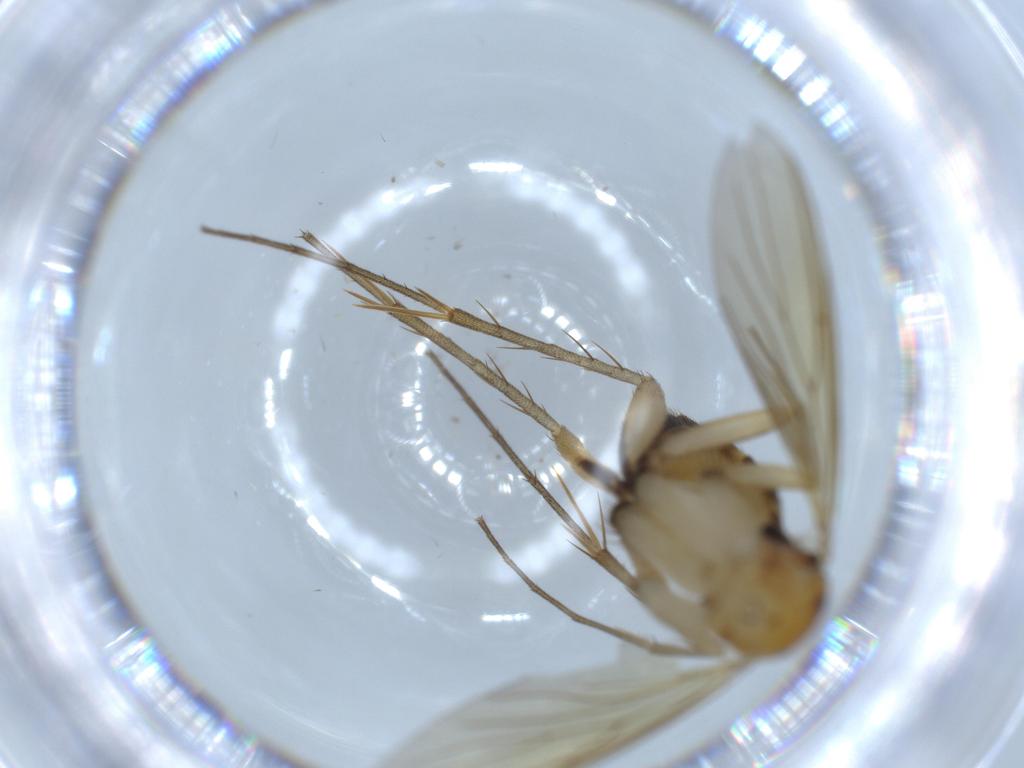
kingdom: Animalia
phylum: Arthropoda
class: Insecta
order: Diptera
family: Mycetophilidae
